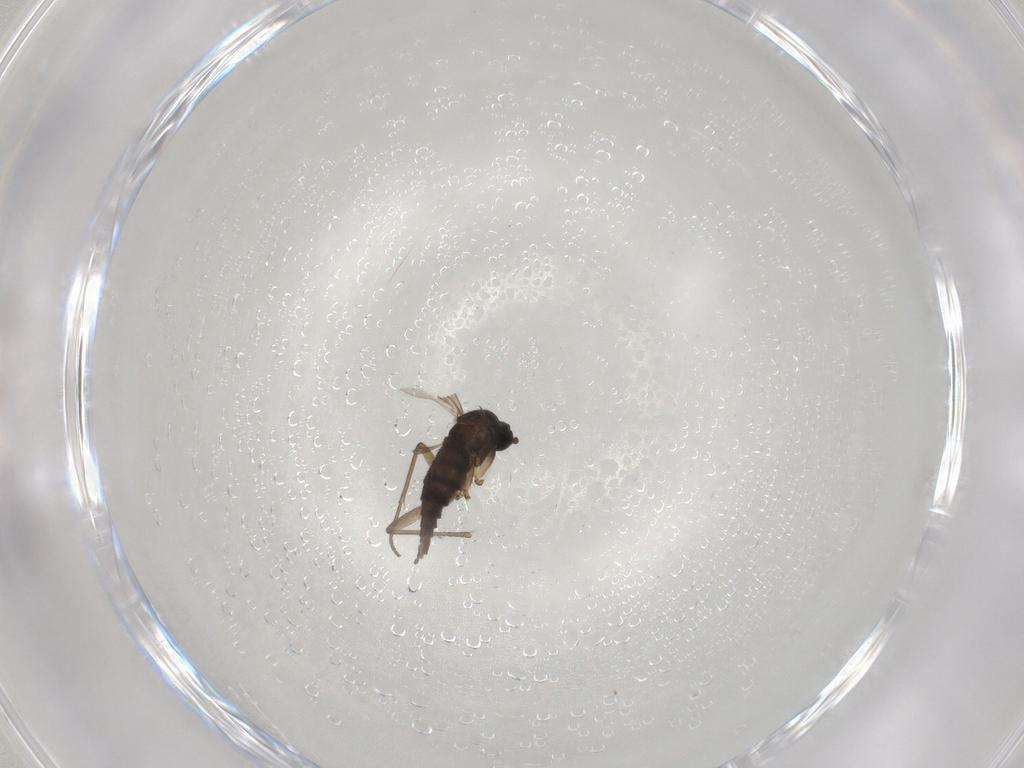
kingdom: Animalia
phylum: Arthropoda
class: Insecta
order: Diptera
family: Sciaridae
